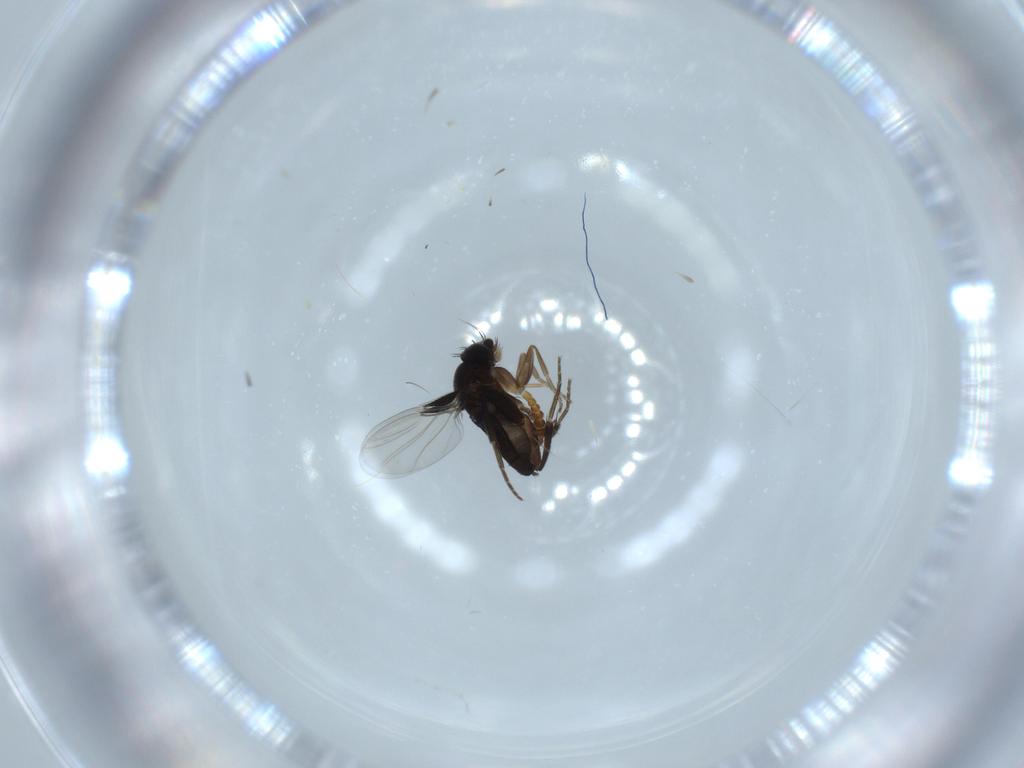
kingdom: Animalia
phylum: Arthropoda
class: Insecta
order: Diptera
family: Phoridae
